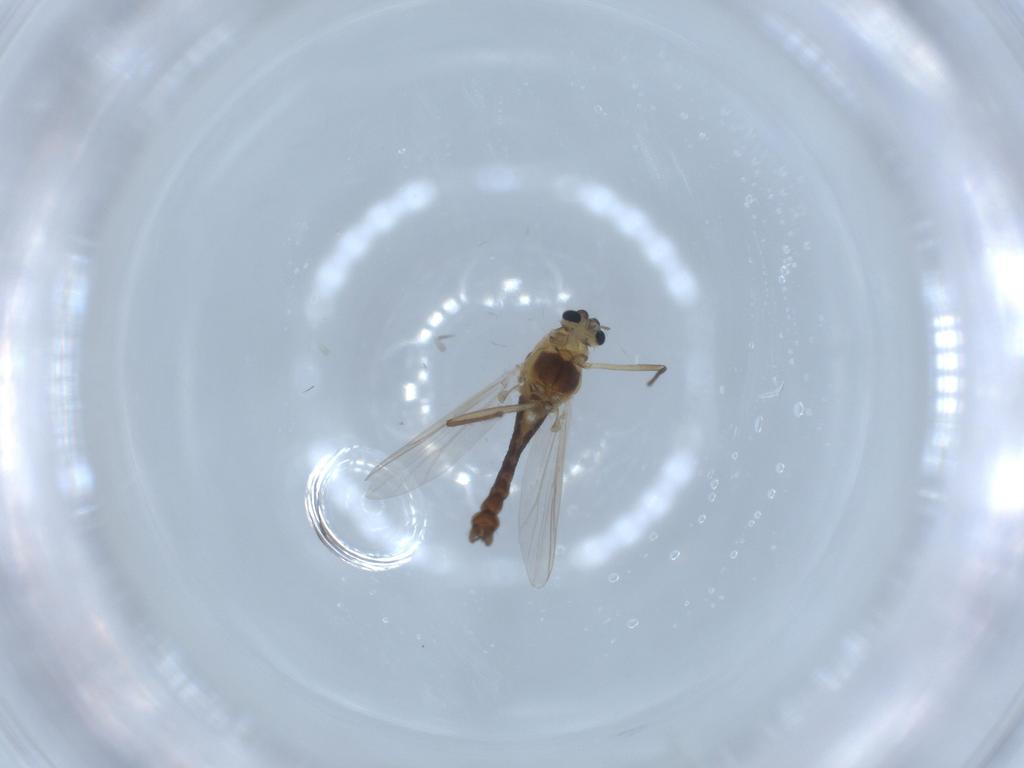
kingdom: Animalia
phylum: Arthropoda
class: Insecta
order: Diptera
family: Chironomidae
